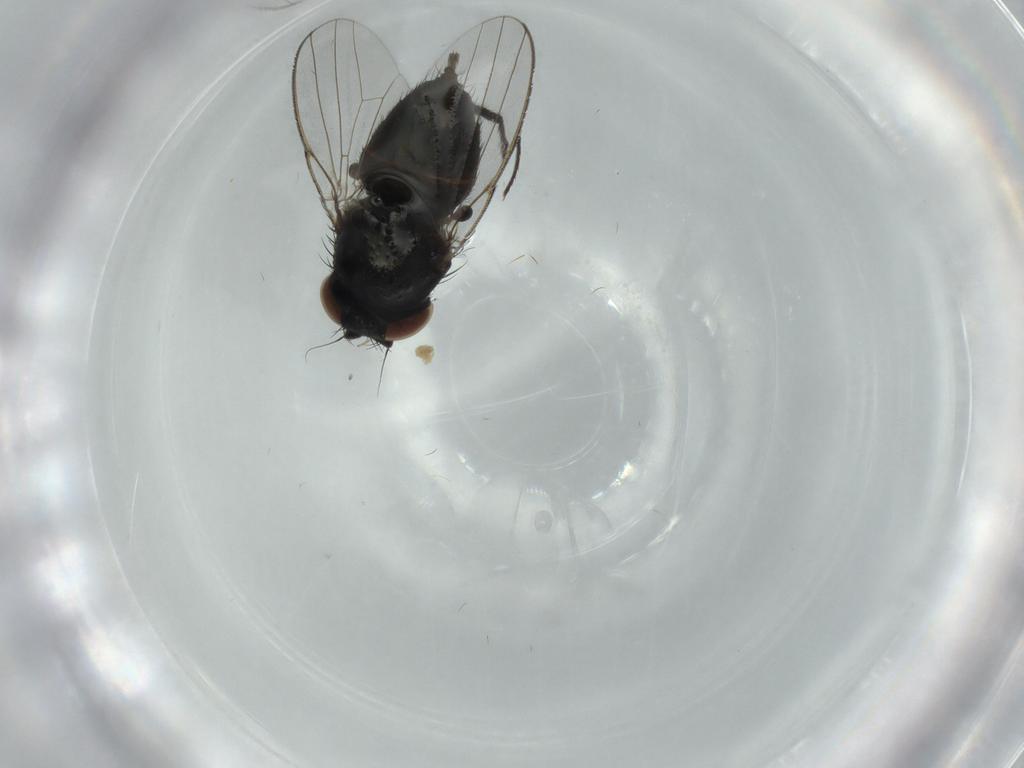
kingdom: Animalia
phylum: Arthropoda
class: Insecta
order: Diptera
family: Milichiidae
